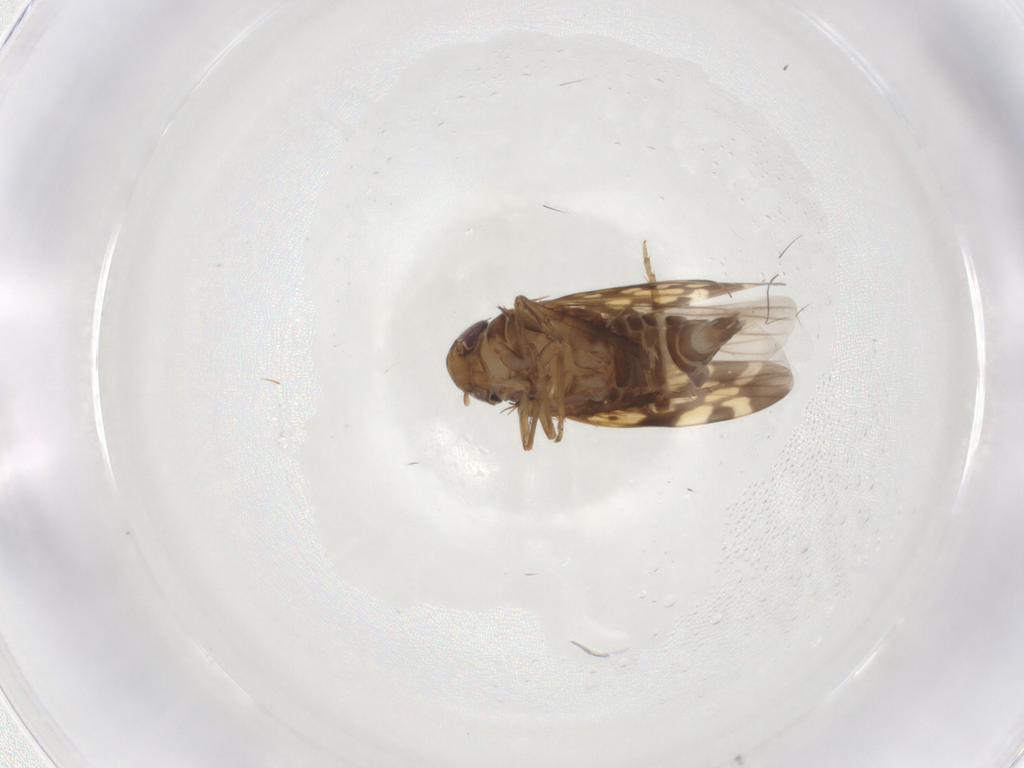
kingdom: Animalia
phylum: Arthropoda
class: Insecta
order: Hemiptera
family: Cicadellidae
